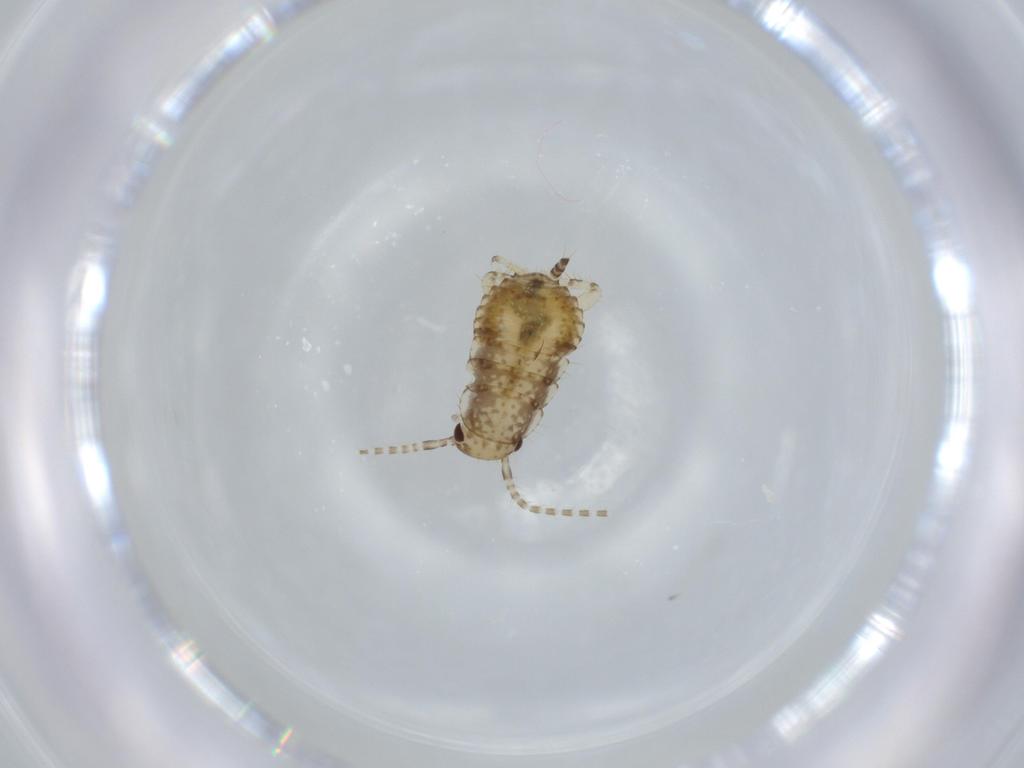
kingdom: Animalia
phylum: Arthropoda
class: Insecta
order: Blattodea
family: Ectobiidae
